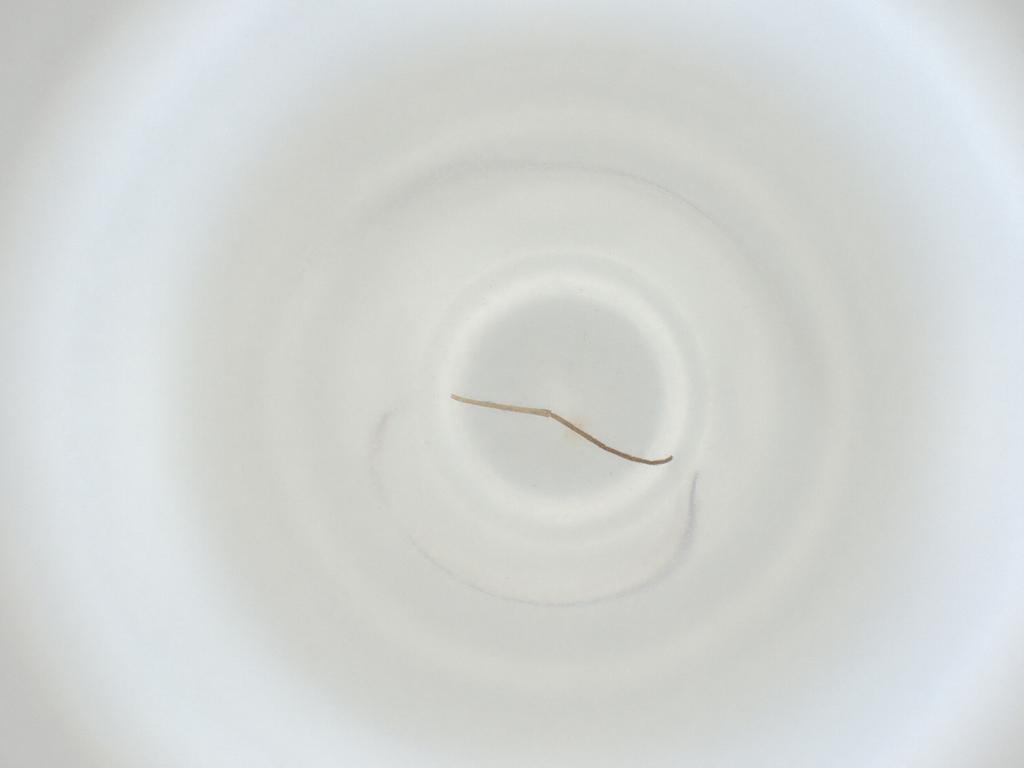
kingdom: Animalia
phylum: Arthropoda
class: Insecta
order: Diptera
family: Cecidomyiidae
